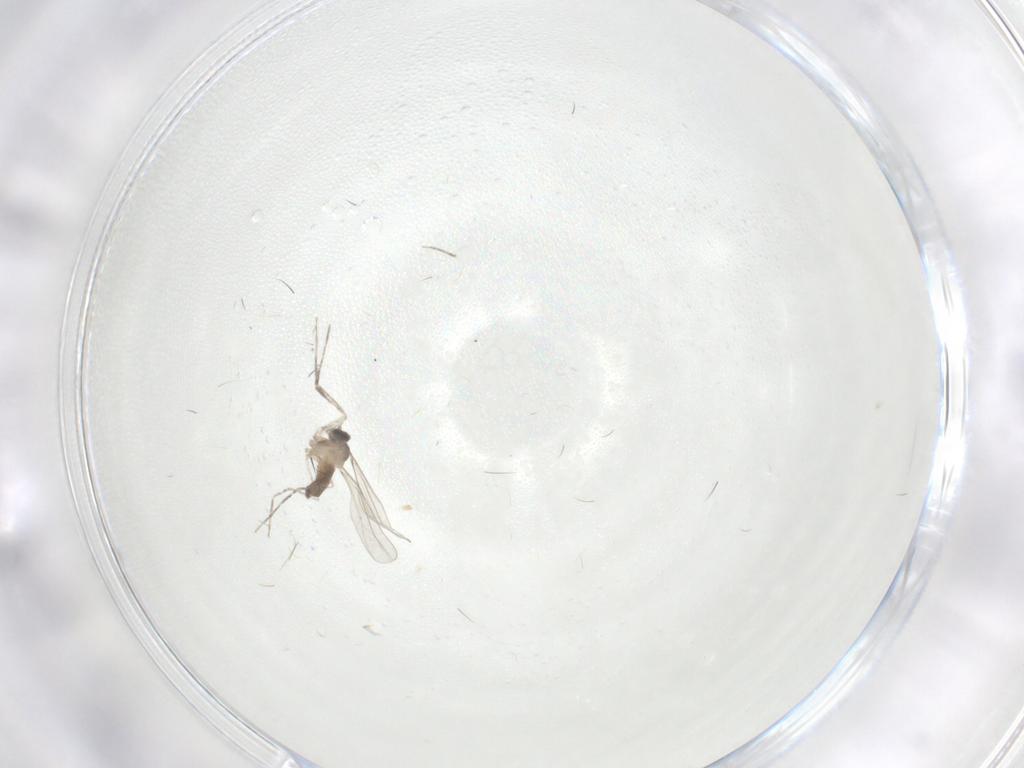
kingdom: Animalia
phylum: Arthropoda
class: Insecta
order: Diptera
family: Cecidomyiidae
